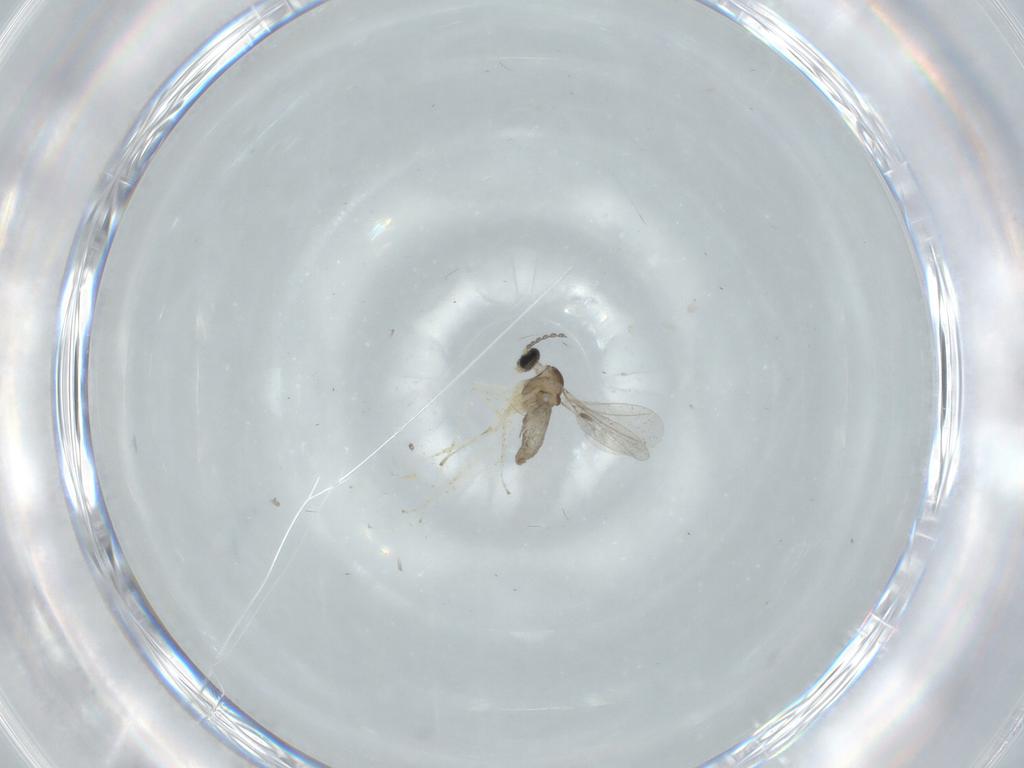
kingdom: Animalia
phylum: Arthropoda
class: Insecta
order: Diptera
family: Cecidomyiidae
